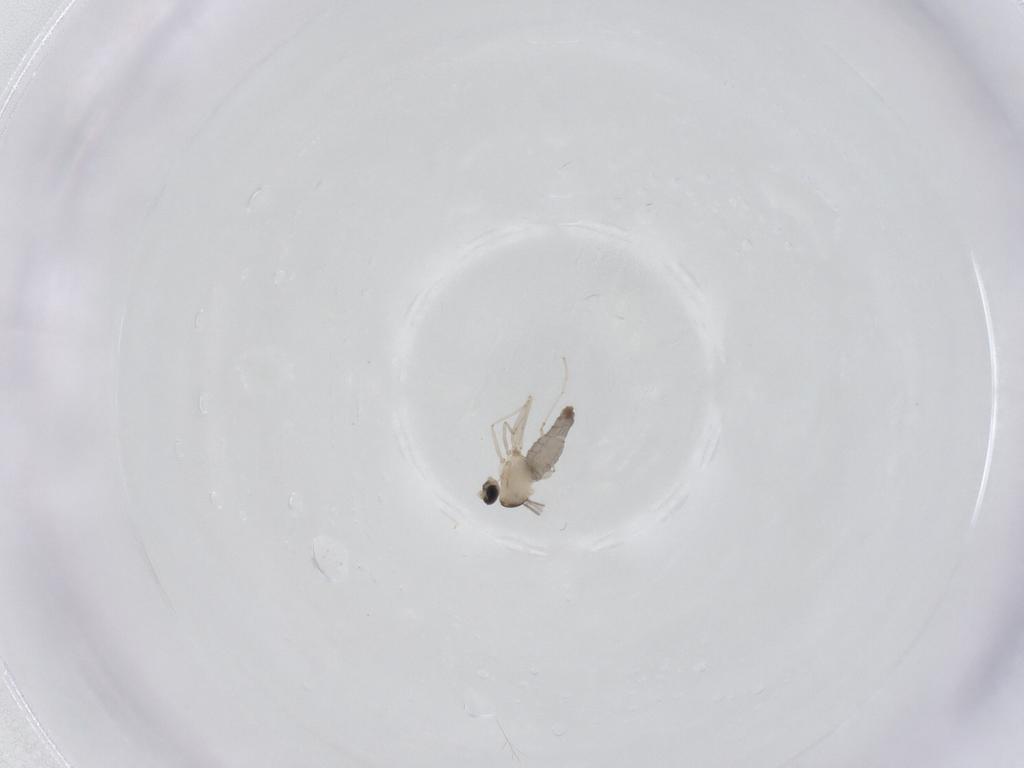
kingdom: Animalia
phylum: Arthropoda
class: Insecta
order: Diptera
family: Cecidomyiidae
